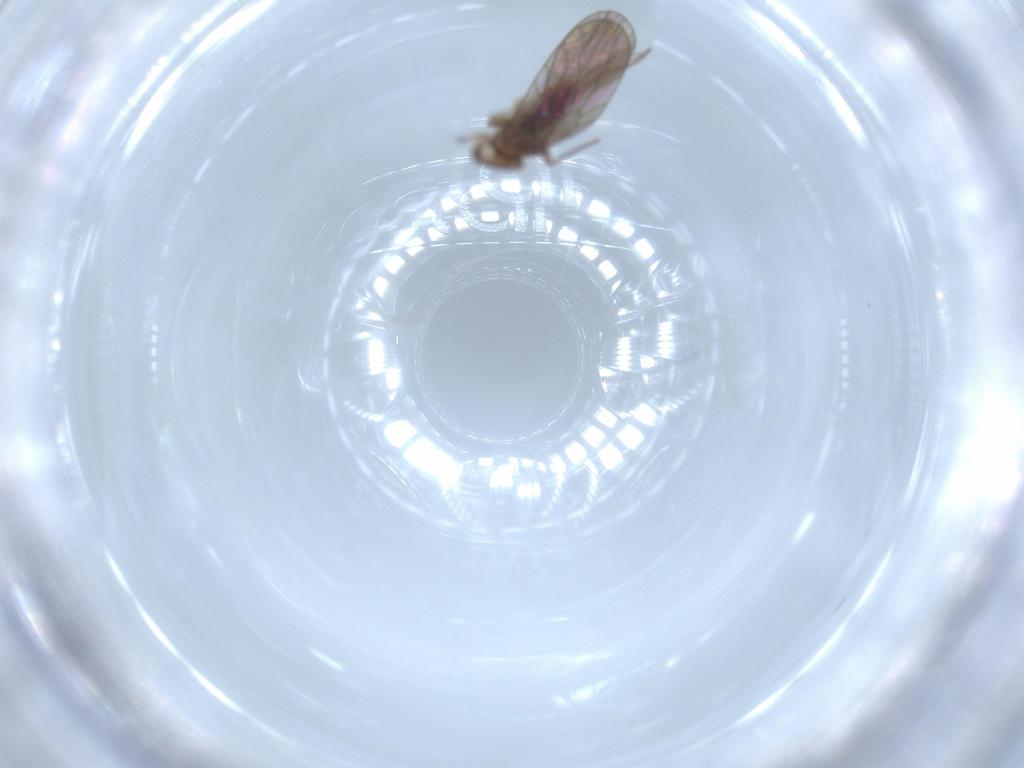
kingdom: Animalia
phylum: Arthropoda
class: Insecta
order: Psocodea
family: Lepidopsocidae
